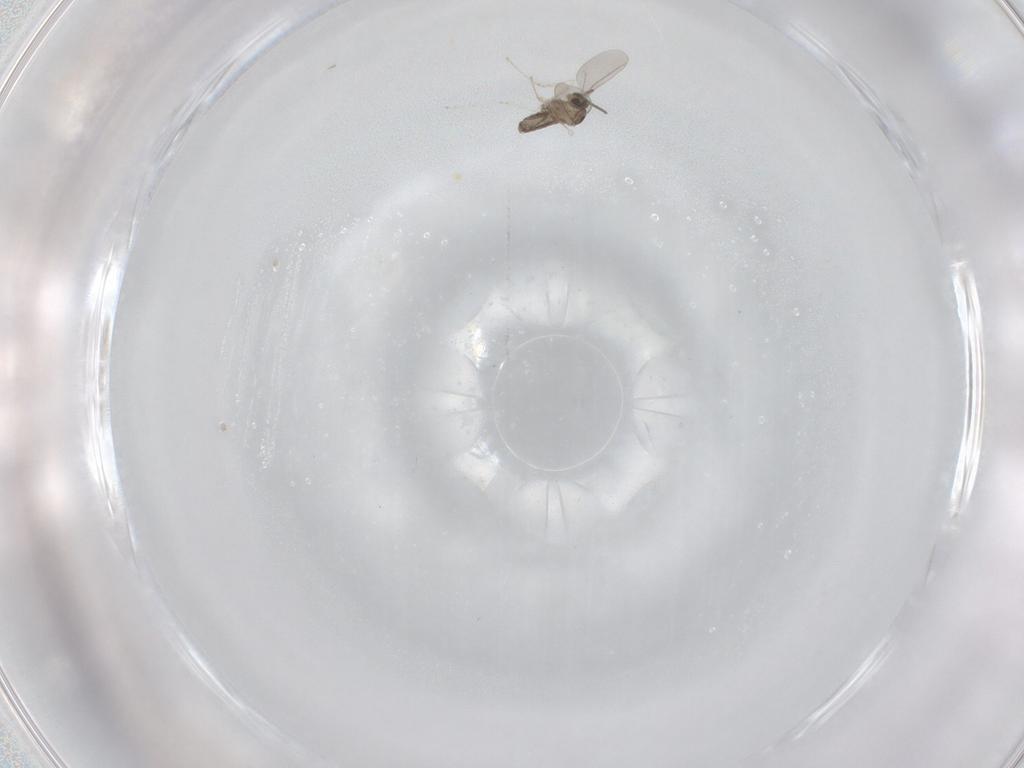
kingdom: Animalia
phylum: Arthropoda
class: Insecta
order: Diptera
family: Cecidomyiidae
